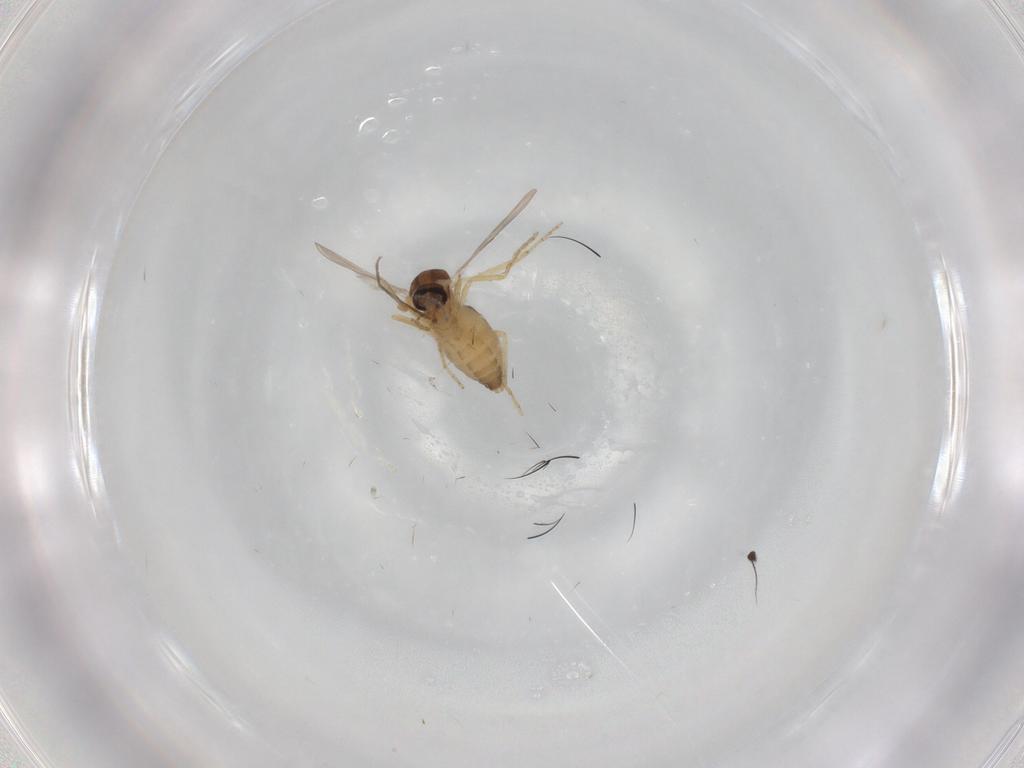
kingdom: Animalia
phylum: Arthropoda
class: Insecta
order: Diptera
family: Ceratopogonidae
